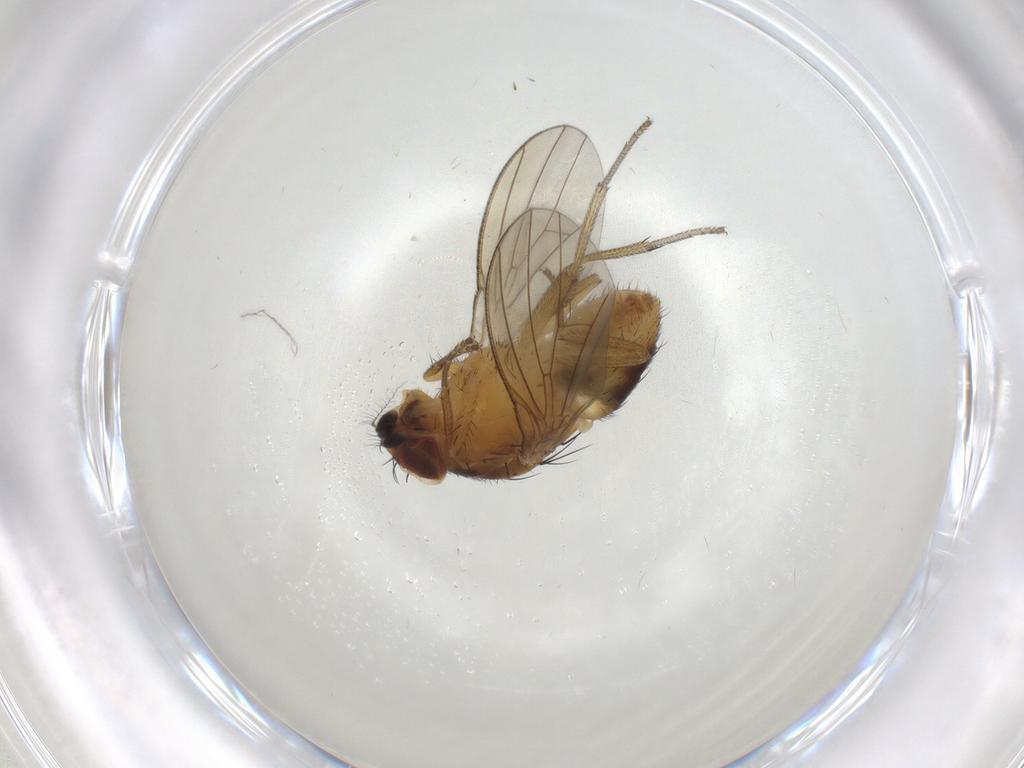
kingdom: Animalia
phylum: Arthropoda
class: Insecta
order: Diptera
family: Lauxaniidae
